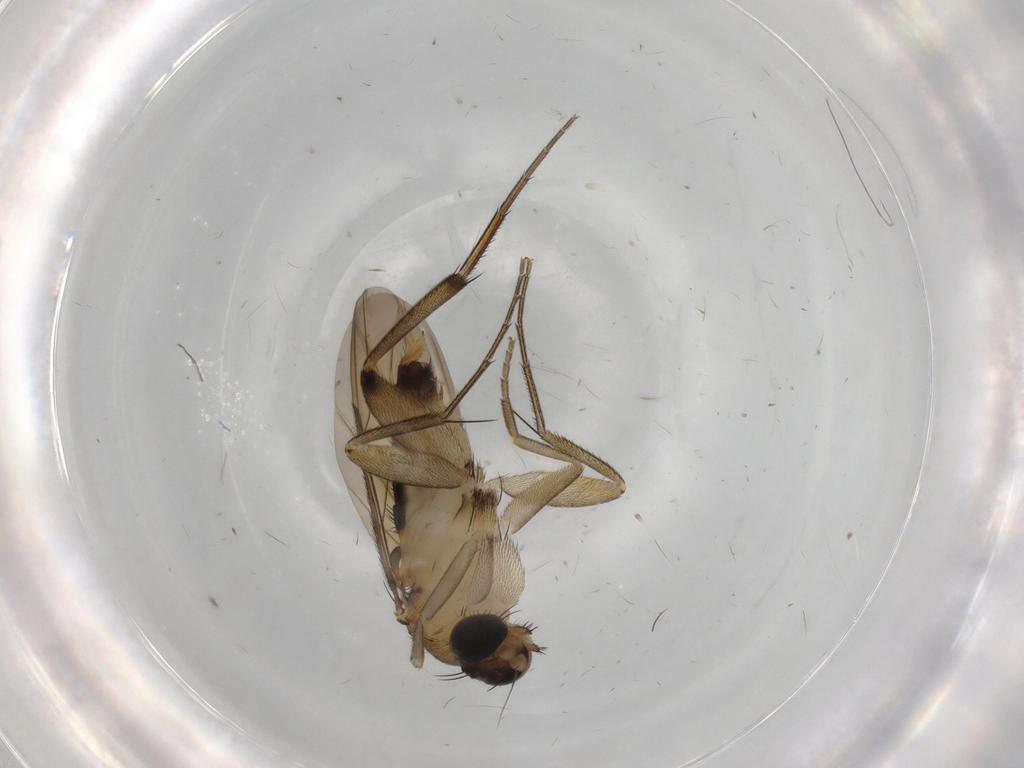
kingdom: Animalia
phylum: Arthropoda
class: Insecta
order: Diptera
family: Chironomidae
